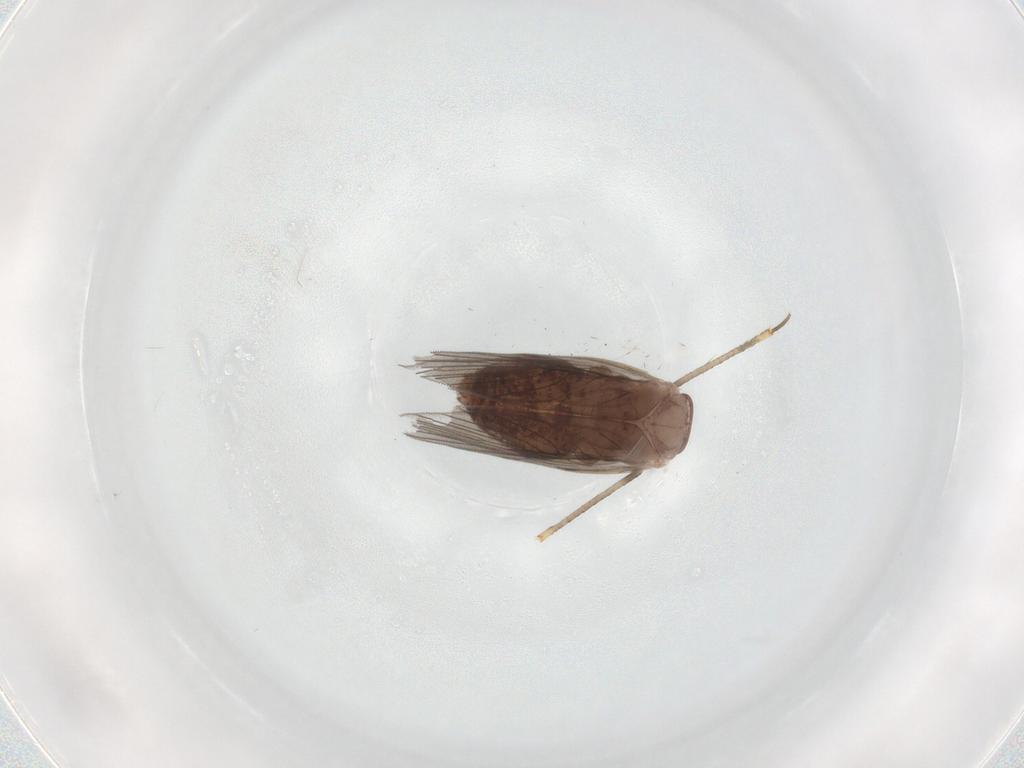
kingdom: Animalia
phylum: Arthropoda
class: Insecta
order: Psocodea
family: Lepidopsocidae
